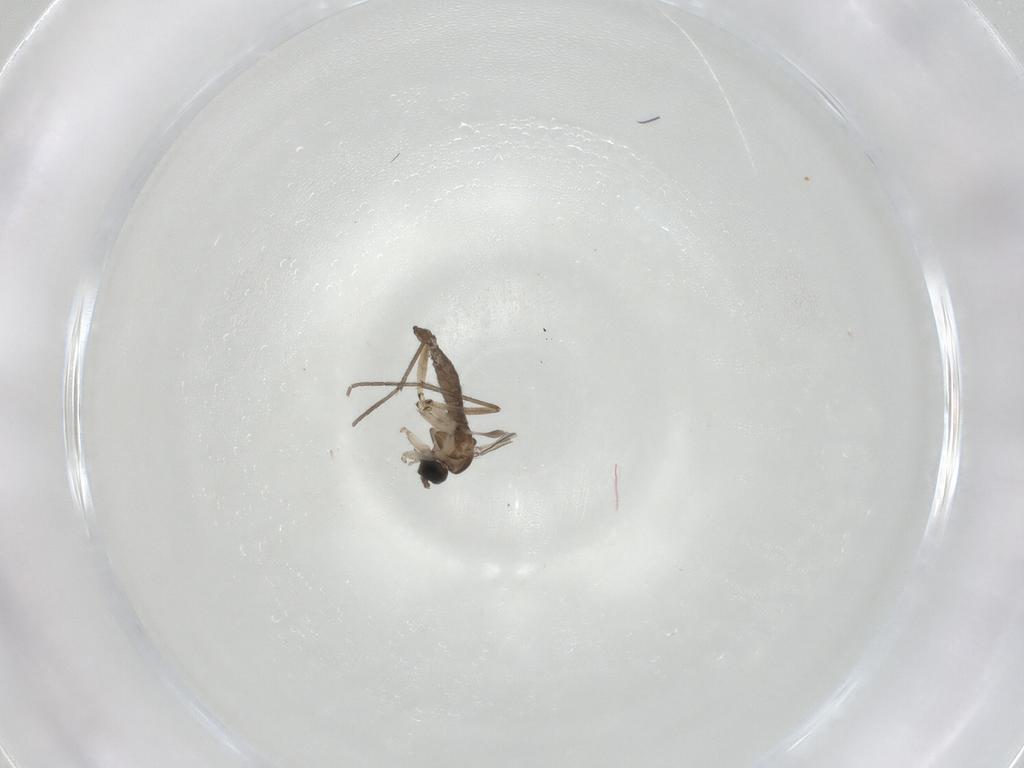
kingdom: Animalia
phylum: Arthropoda
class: Insecta
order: Diptera
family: Sciaridae
